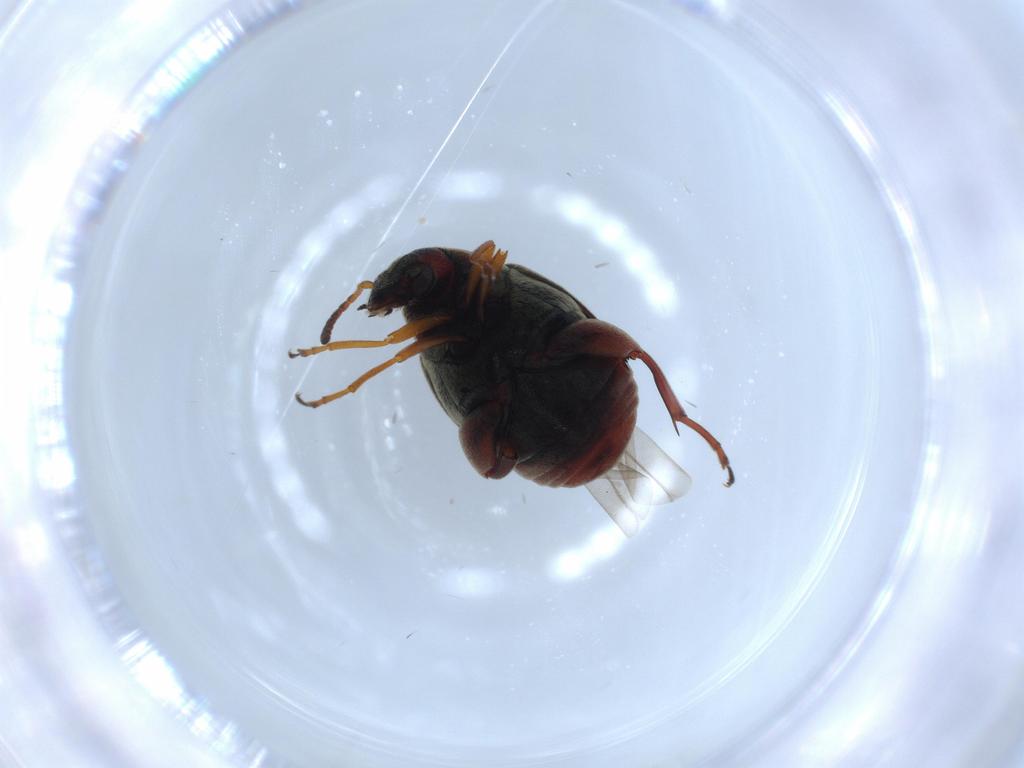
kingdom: Animalia
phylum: Arthropoda
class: Insecta
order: Coleoptera
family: Chrysomelidae
